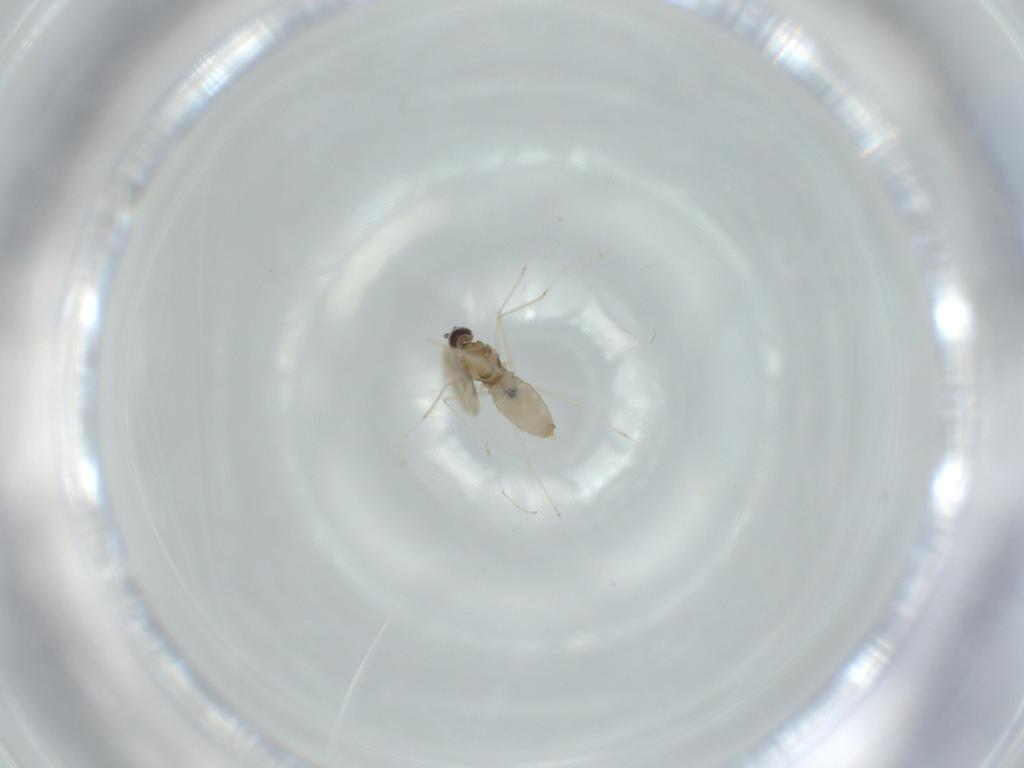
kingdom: Animalia
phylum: Arthropoda
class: Insecta
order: Diptera
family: Cecidomyiidae
